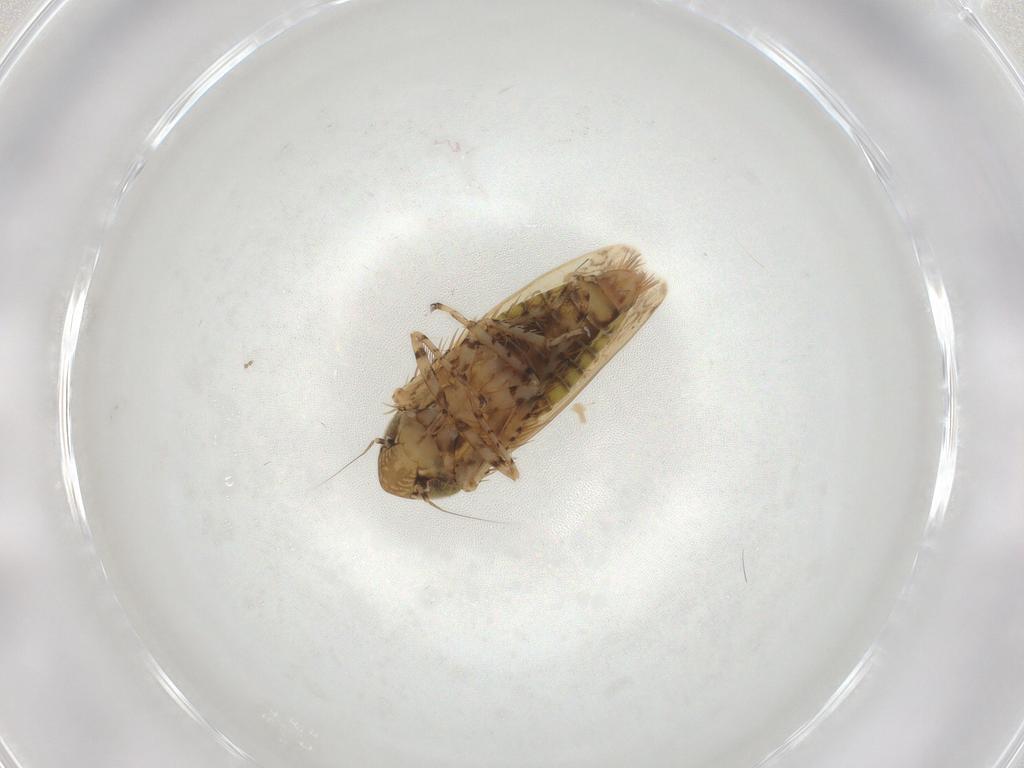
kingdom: Animalia
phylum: Arthropoda
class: Insecta
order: Hemiptera
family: Cicadellidae
